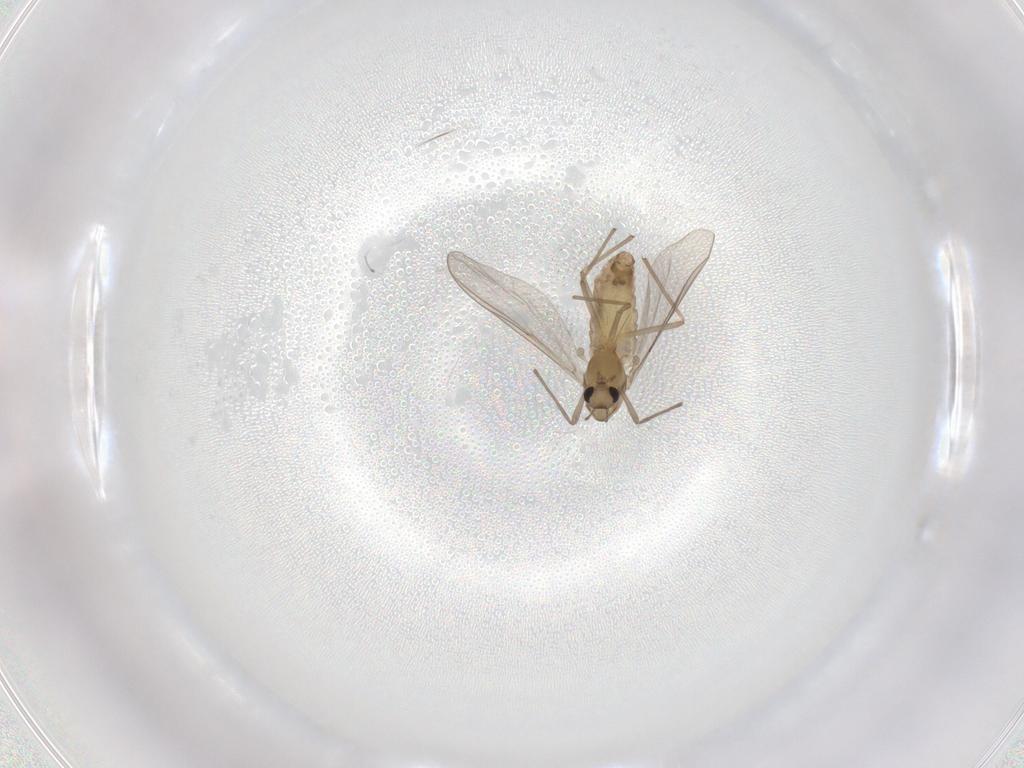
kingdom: Animalia
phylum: Arthropoda
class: Insecta
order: Diptera
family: Chironomidae
